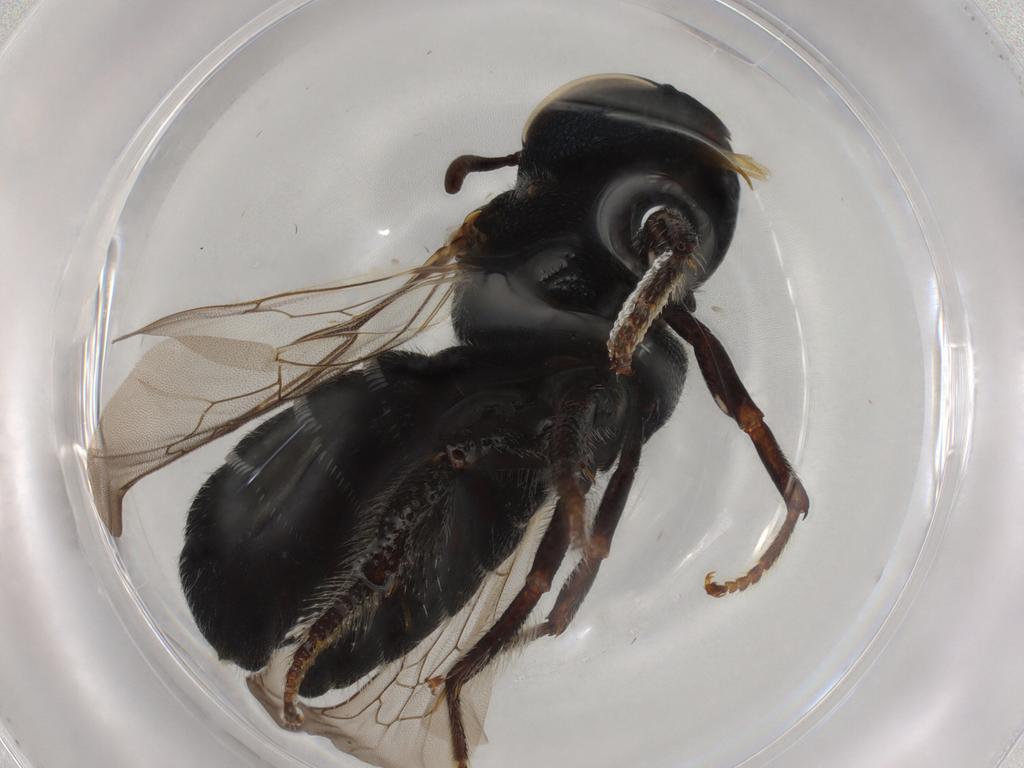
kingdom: Animalia
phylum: Arthropoda
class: Insecta
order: Hymenoptera
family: Apidae
